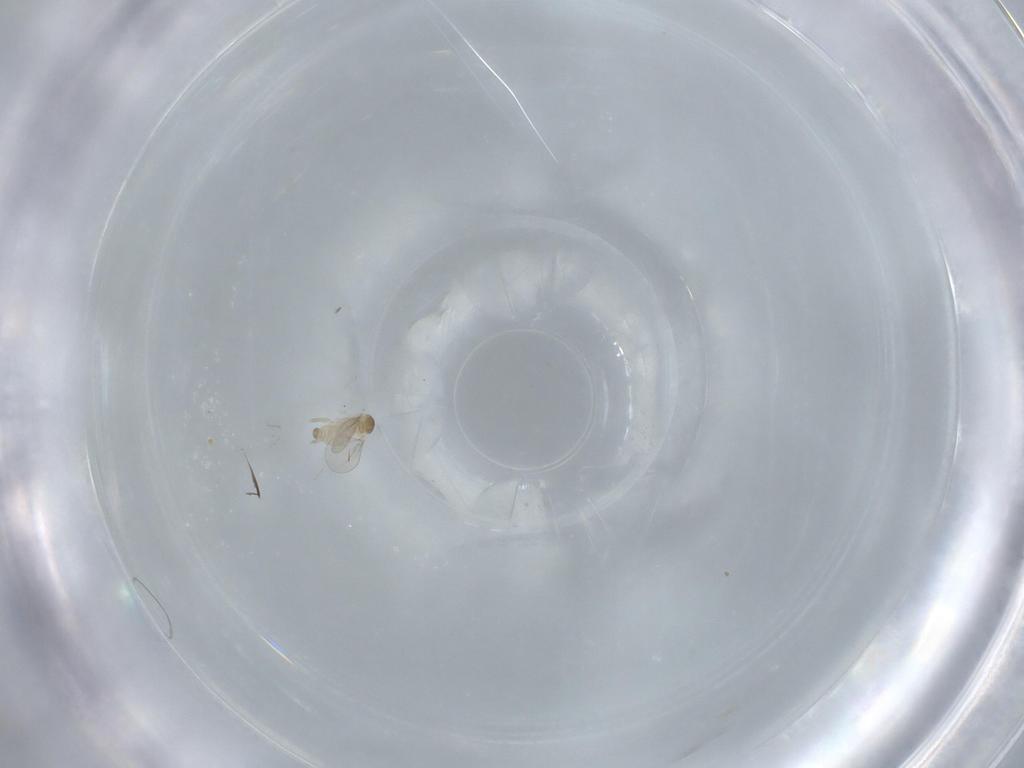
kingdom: Animalia
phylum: Arthropoda
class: Insecta
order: Diptera
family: Cecidomyiidae
